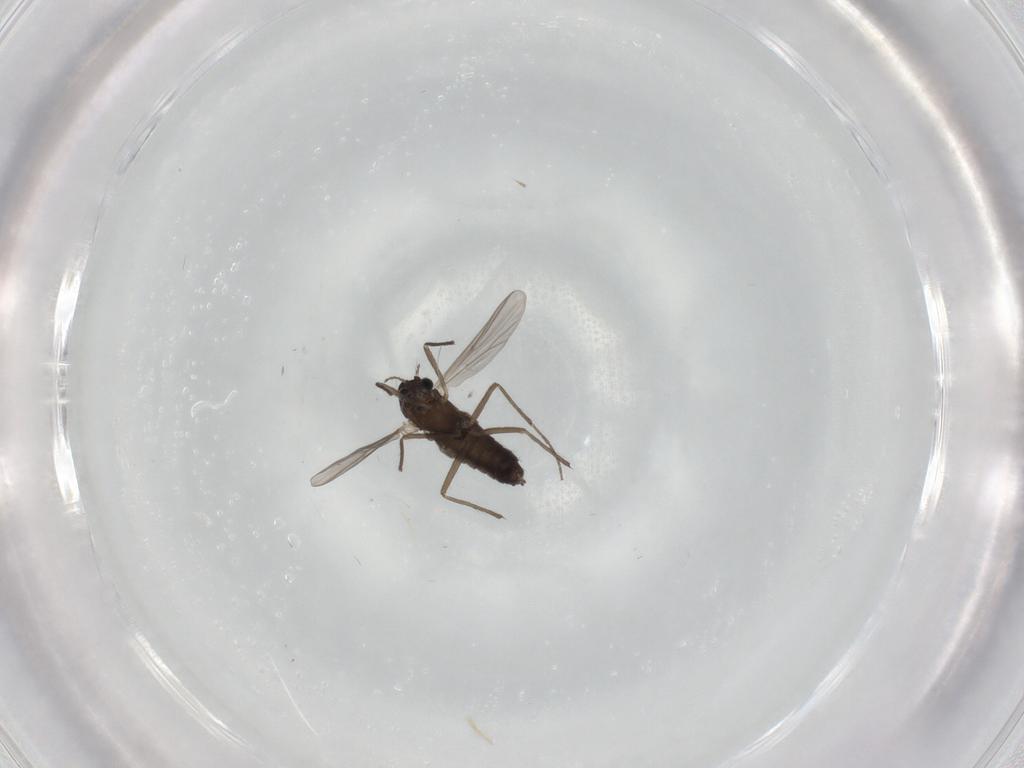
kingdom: Animalia
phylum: Arthropoda
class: Insecta
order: Diptera
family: Chironomidae
